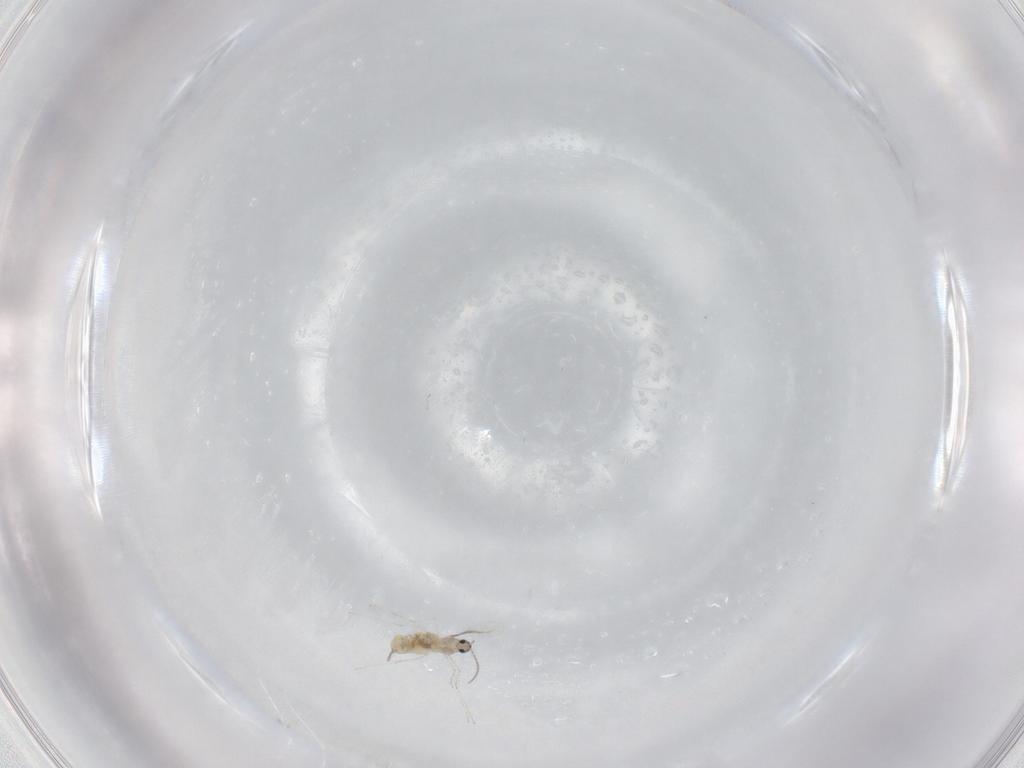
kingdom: Animalia
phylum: Arthropoda
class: Insecta
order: Diptera
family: Cecidomyiidae
